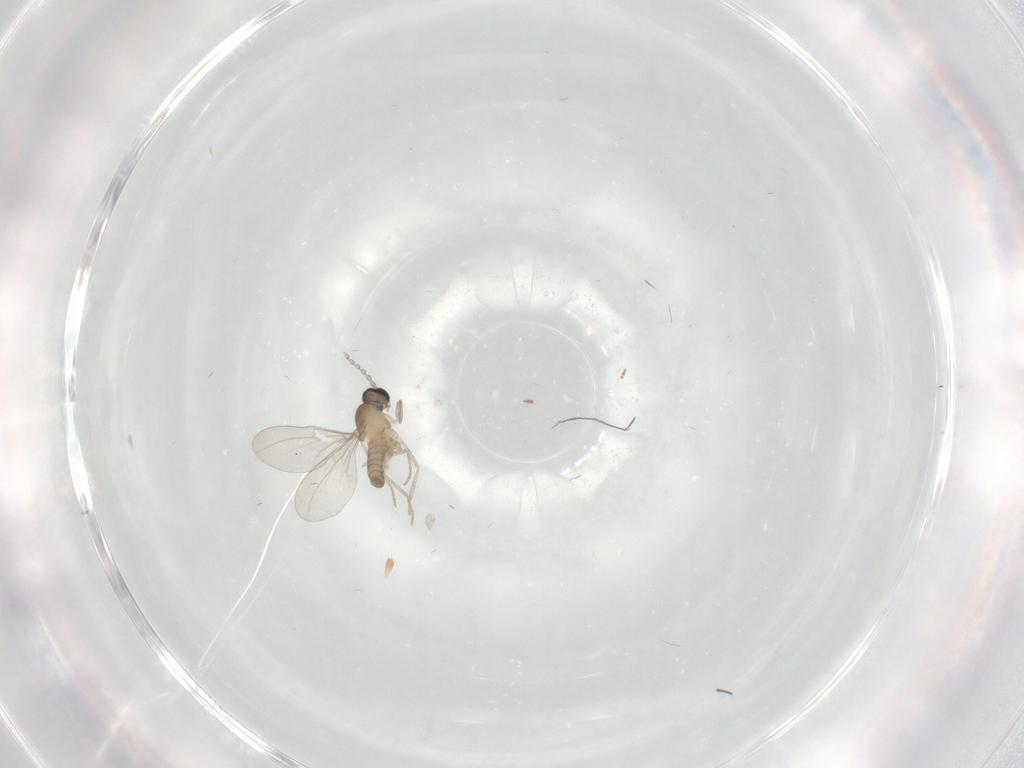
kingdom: Animalia
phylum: Arthropoda
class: Insecta
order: Diptera
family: Cecidomyiidae
